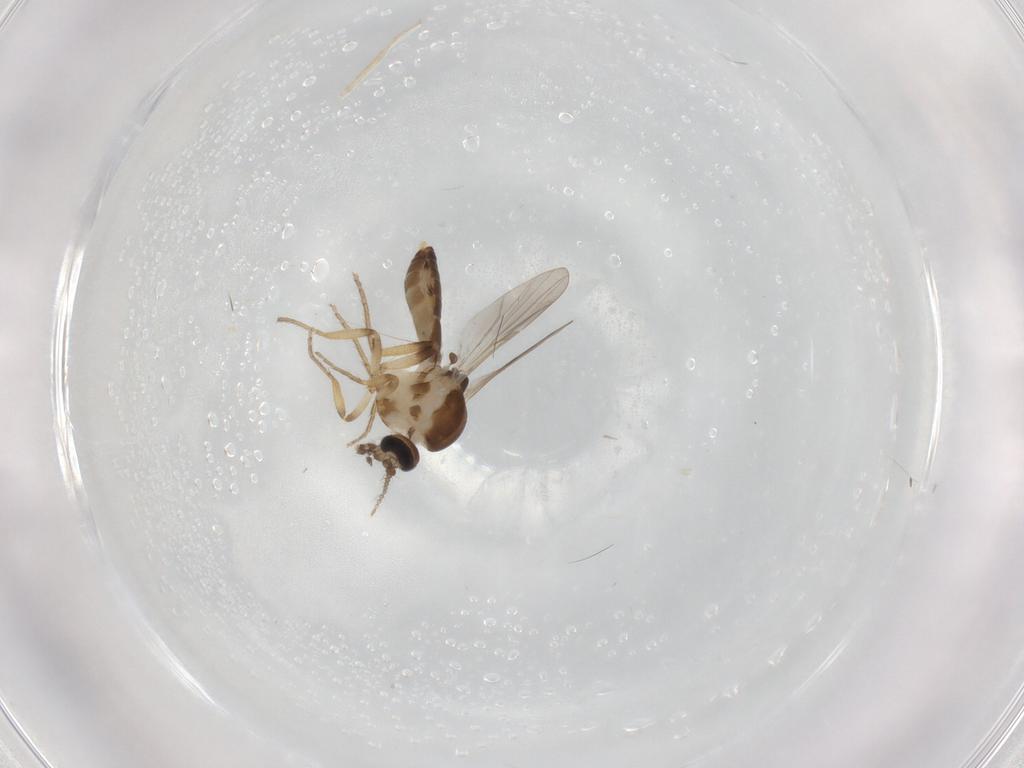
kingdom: Animalia
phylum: Arthropoda
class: Insecta
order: Diptera
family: Ceratopogonidae
